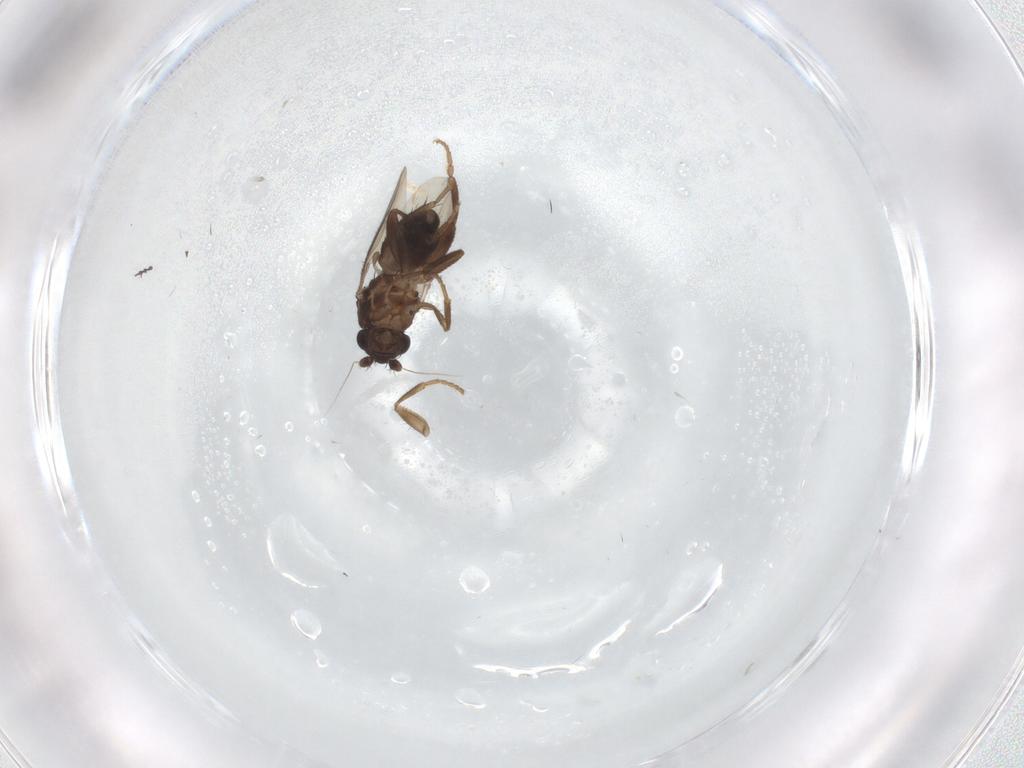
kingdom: Animalia
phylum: Arthropoda
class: Insecta
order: Diptera
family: Sphaeroceridae
